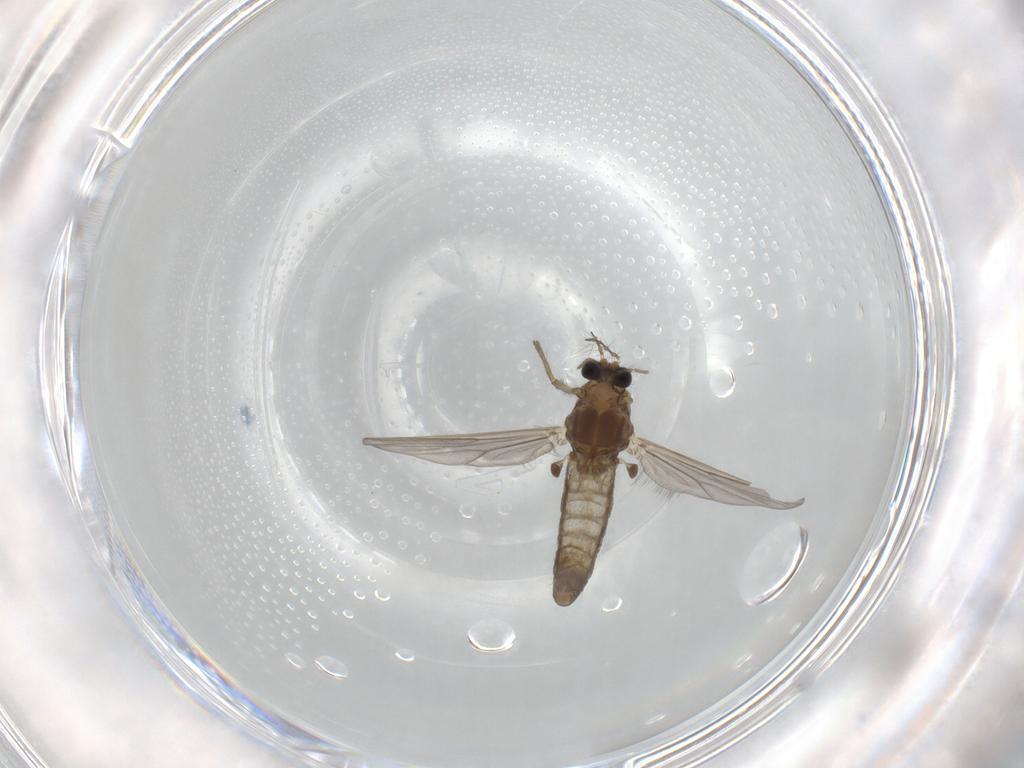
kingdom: Animalia
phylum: Arthropoda
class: Insecta
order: Diptera
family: Chironomidae
